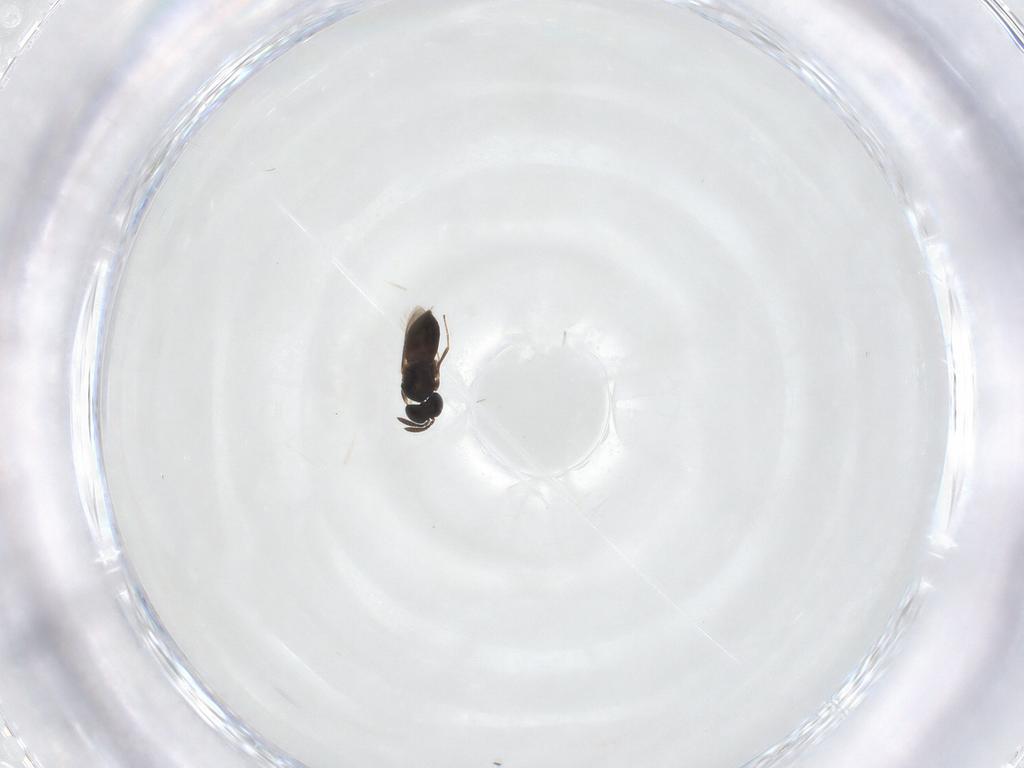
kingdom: Animalia
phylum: Arthropoda
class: Insecta
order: Hymenoptera
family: Scelionidae
